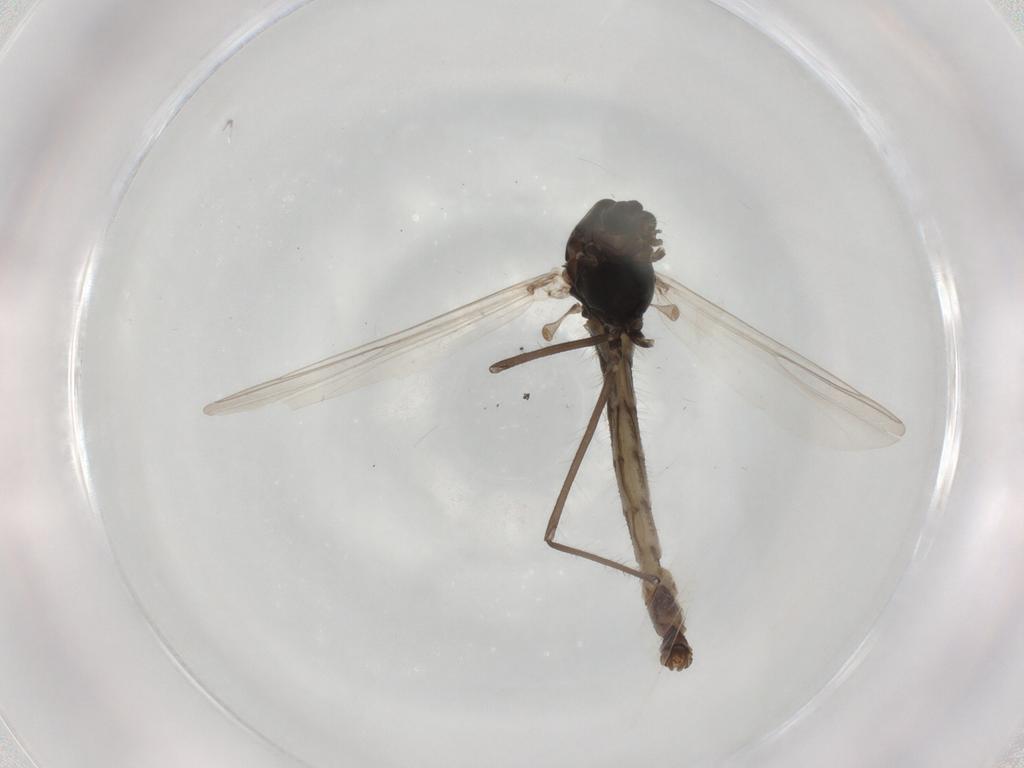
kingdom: Animalia
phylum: Arthropoda
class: Insecta
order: Diptera
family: Chironomidae
